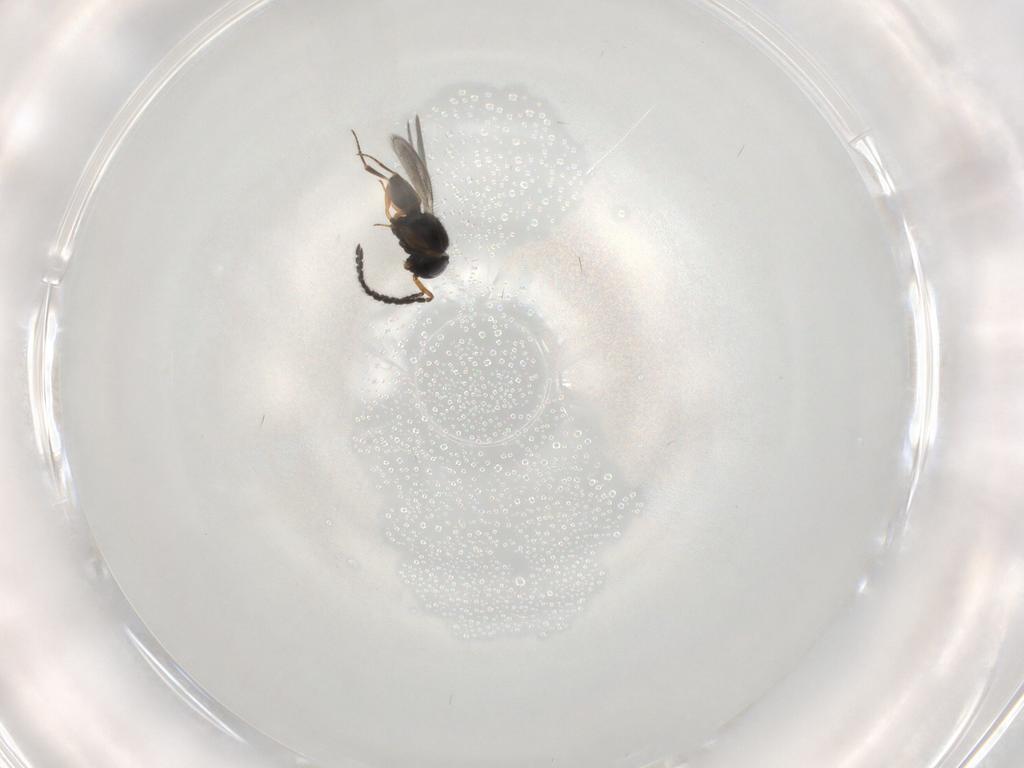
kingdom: Animalia
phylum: Arthropoda
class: Insecta
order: Hymenoptera
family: Scelionidae
